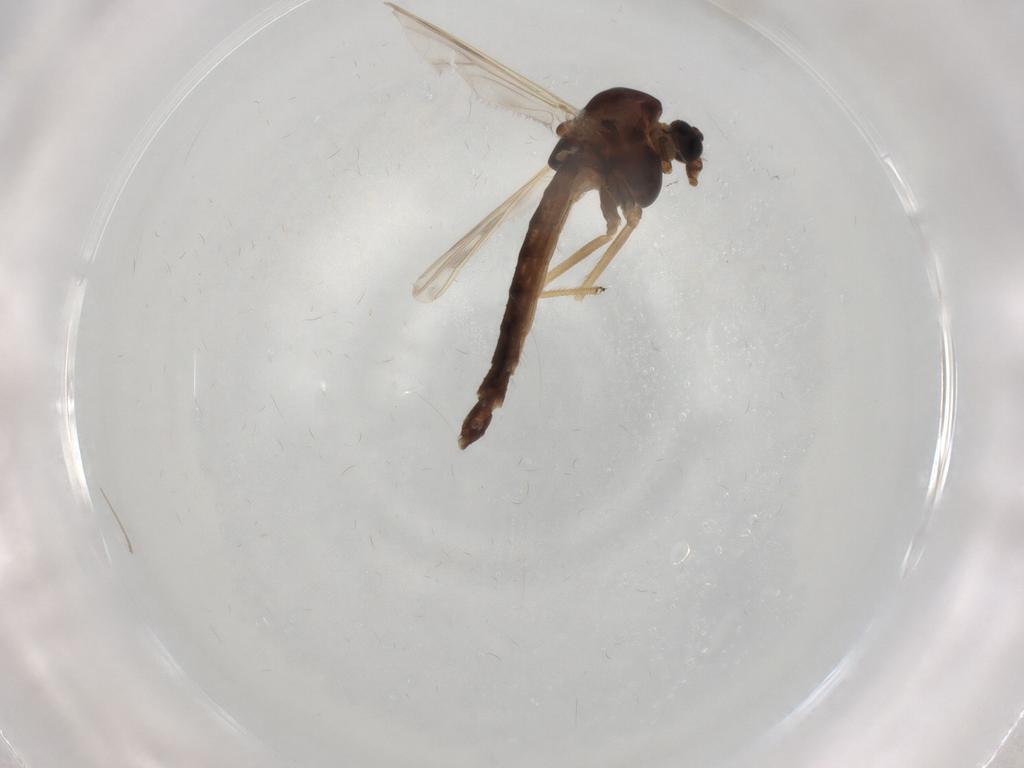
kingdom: Animalia
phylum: Arthropoda
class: Insecta
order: Diptera
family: Chironomidae
